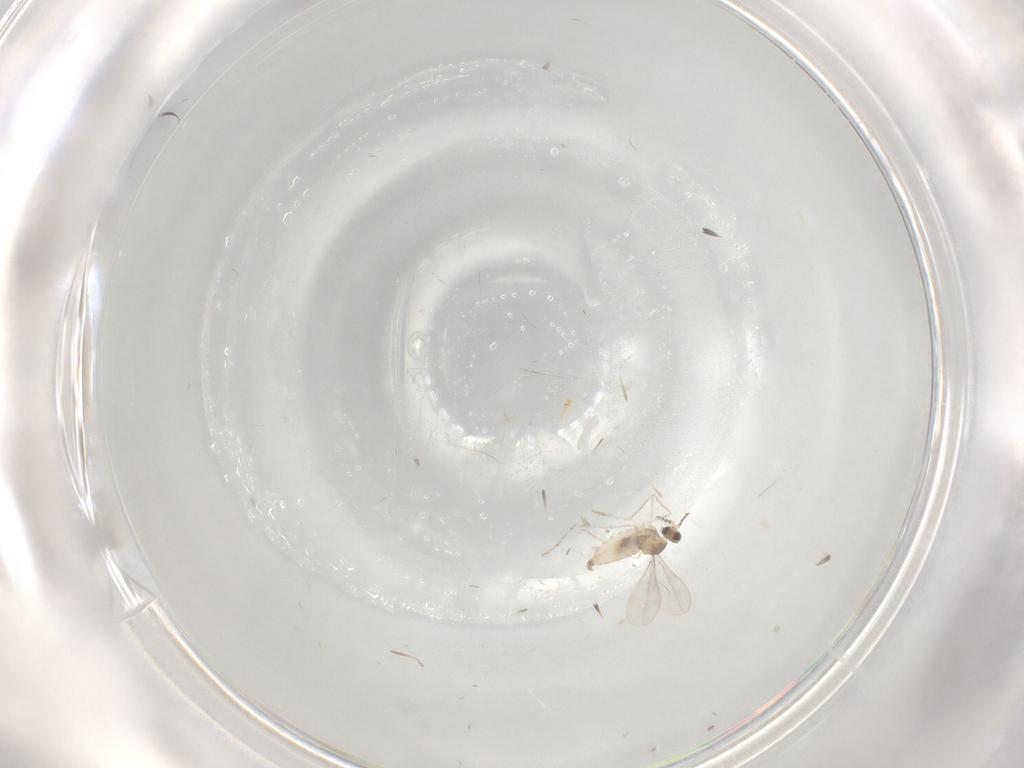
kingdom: Animalia
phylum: Arthropoda
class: Insecta
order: Diptera
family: Cecidomyiidae
